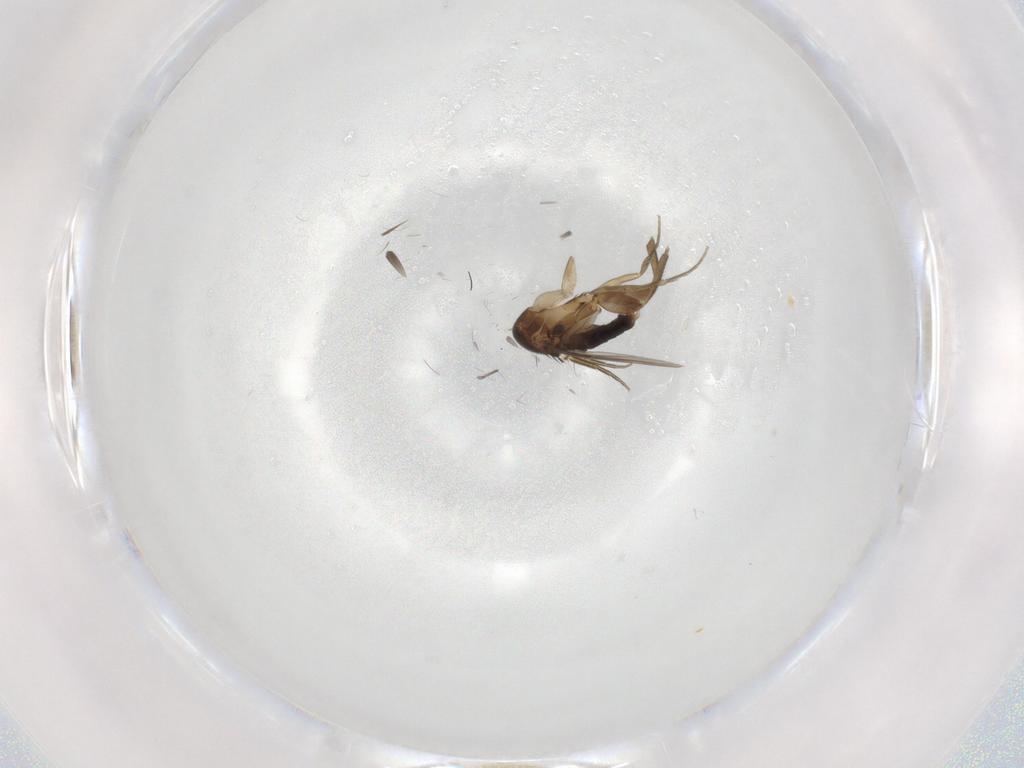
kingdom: Animalia
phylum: Arthropoda
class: Insecta
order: Diptera
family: Phoridae
